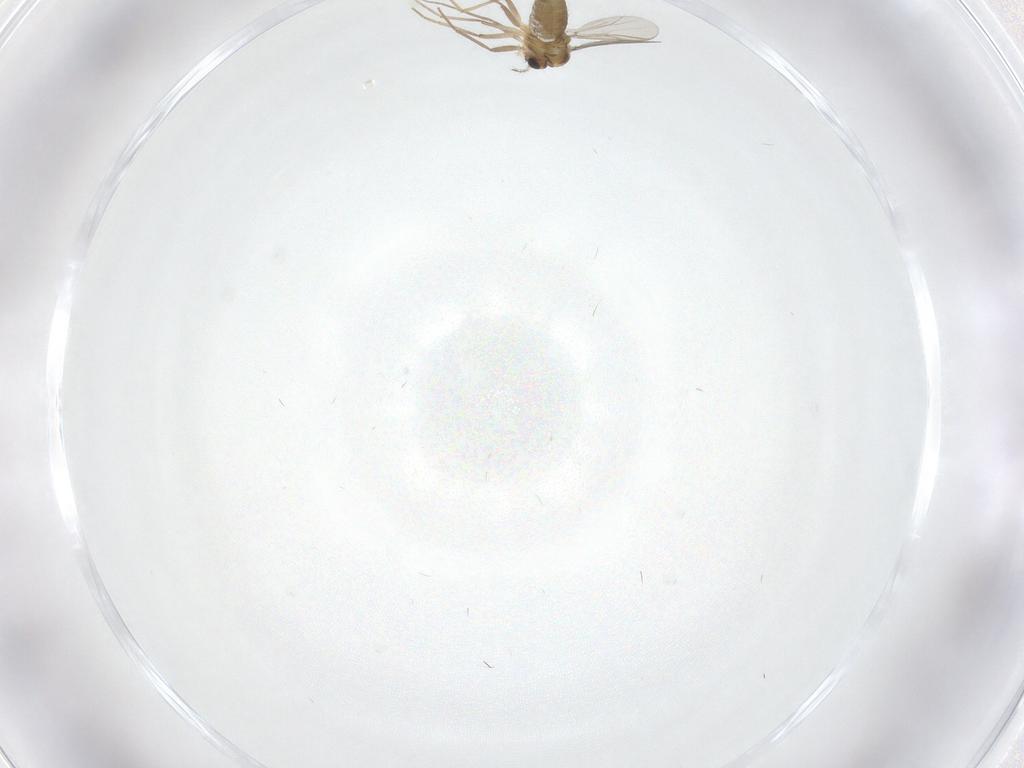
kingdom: Animalia
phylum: Arthropoda
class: Insecta
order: Diptera
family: Chironomidae
